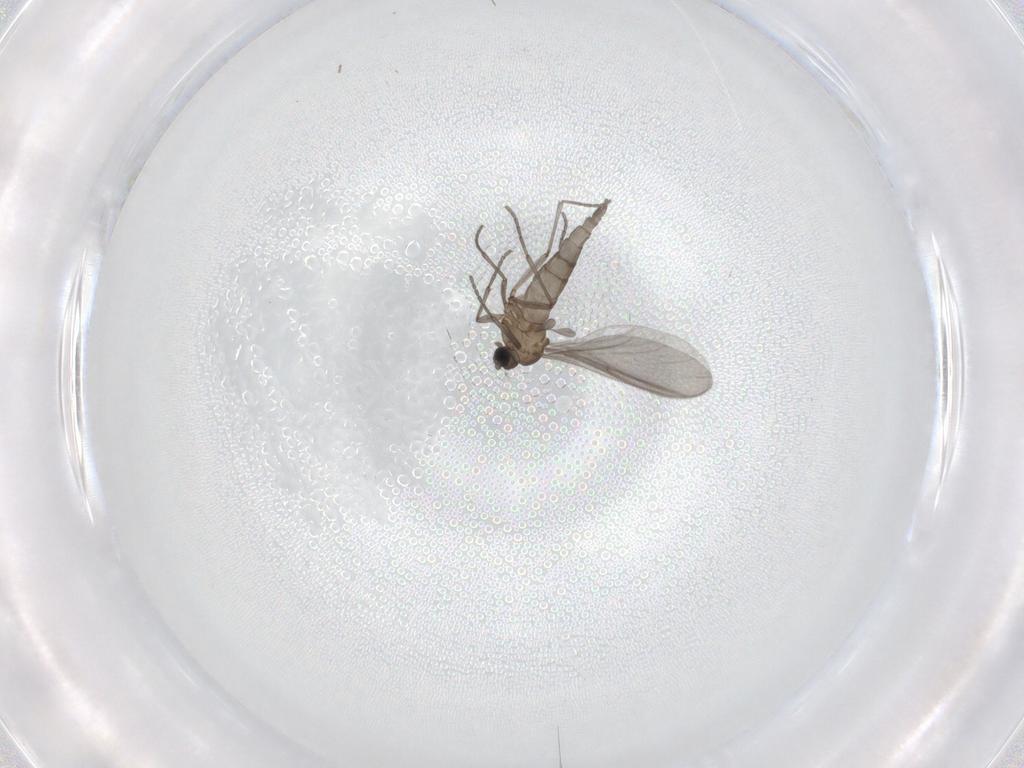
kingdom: Animalia
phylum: Arthropoda
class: Insecta
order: Diptera
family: Sciaridae
